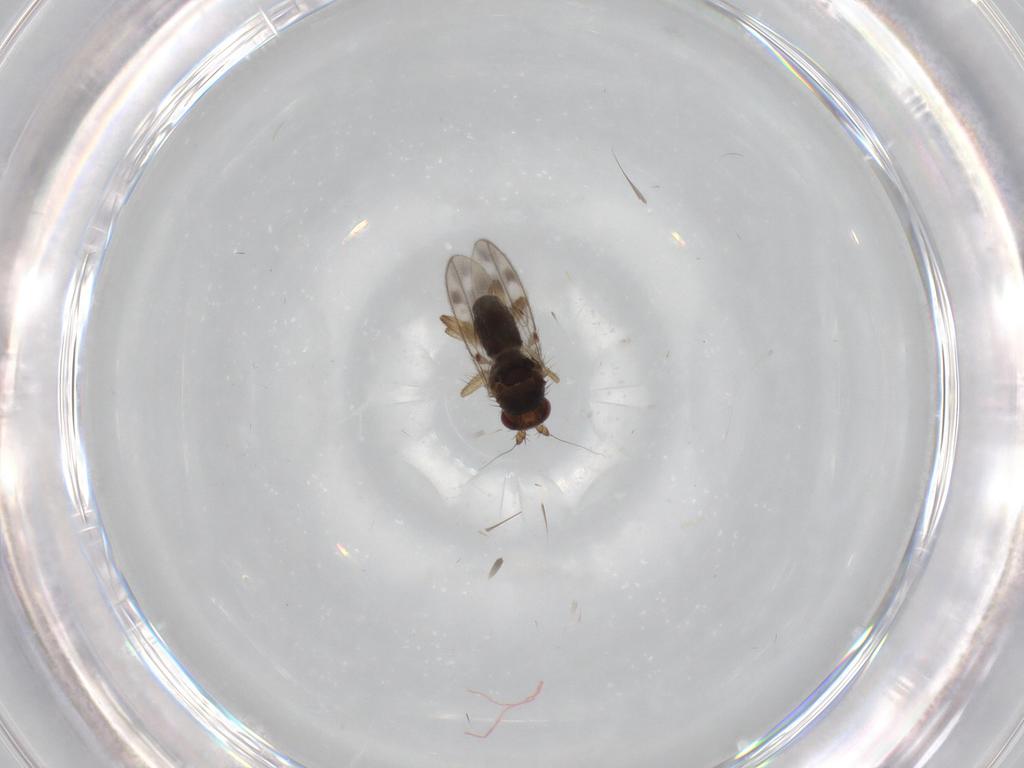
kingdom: Animalia
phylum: Arthropoda
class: Insecta
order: Diptera
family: Sphaeroceridae
